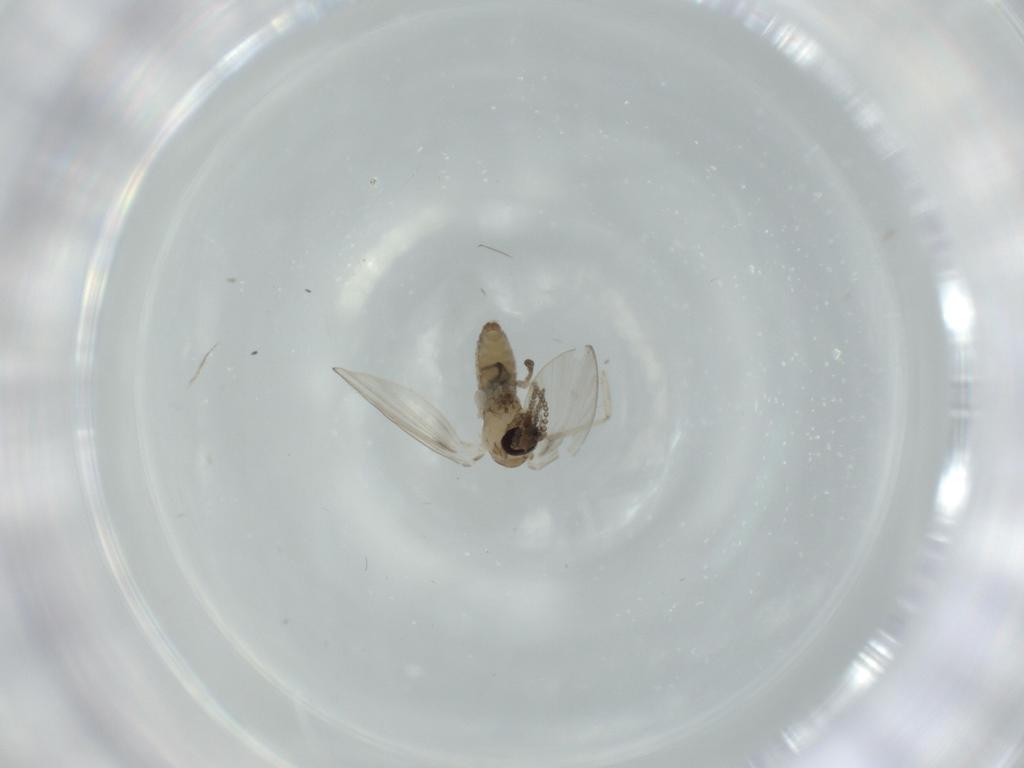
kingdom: Animalia
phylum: Arthropoda
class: Insecta
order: Diptera
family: Psychodidae
